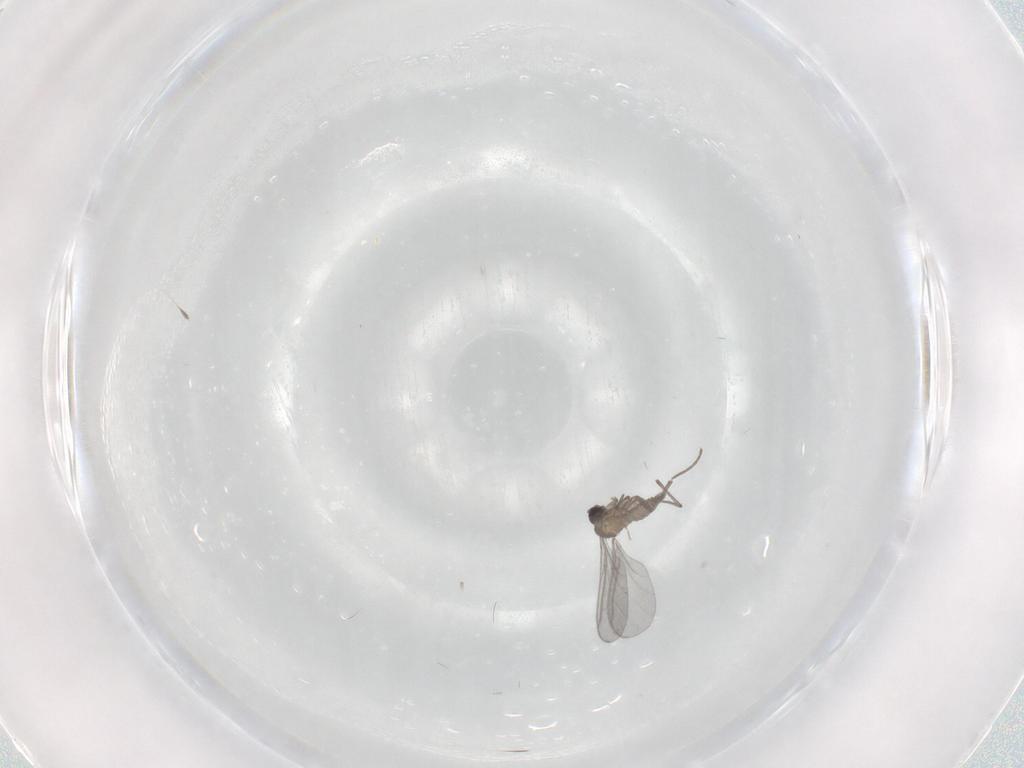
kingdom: Animalia
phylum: Arthropoda
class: Insecta
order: Diptera
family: Sciaridae
